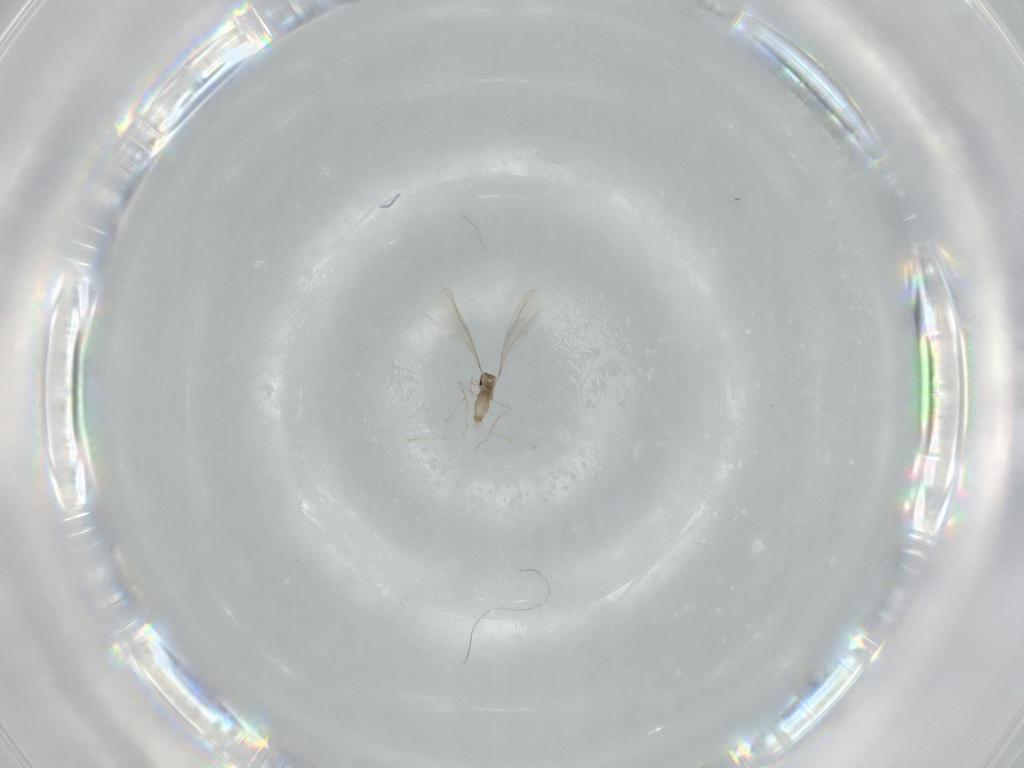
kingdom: Animalia
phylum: Arthropoda
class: Insecta
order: Diptera
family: Cecidomyiidae
